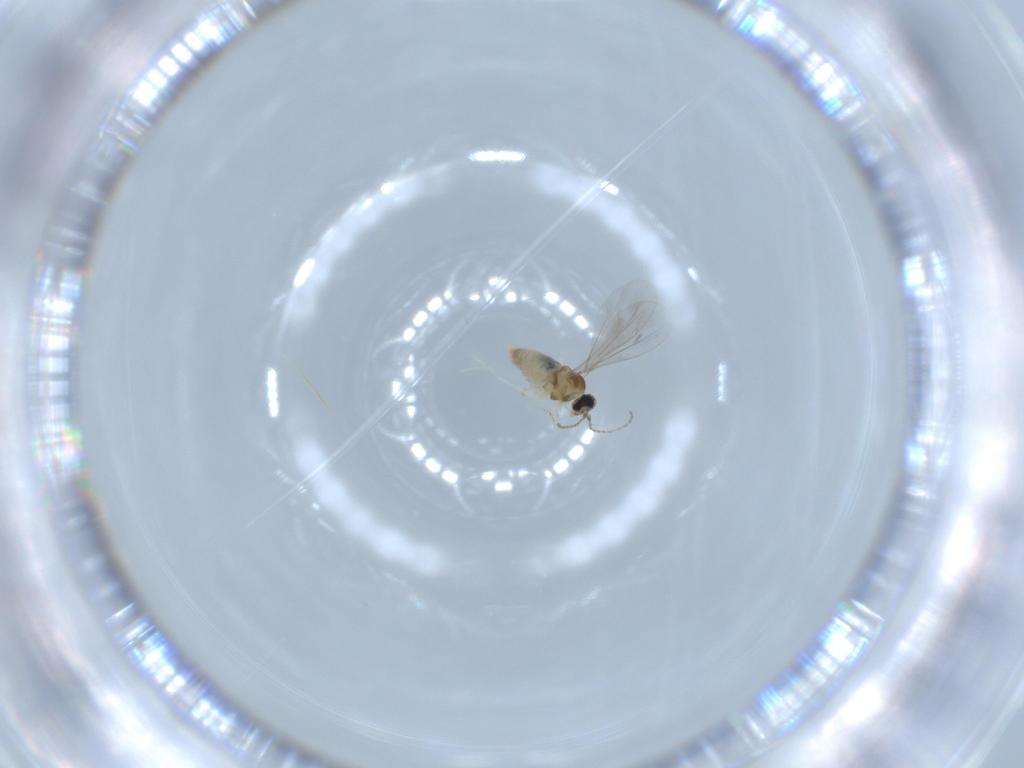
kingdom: Animalia
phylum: Arthropoda
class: Insecta
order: Diptera
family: Cecidomyiidae
